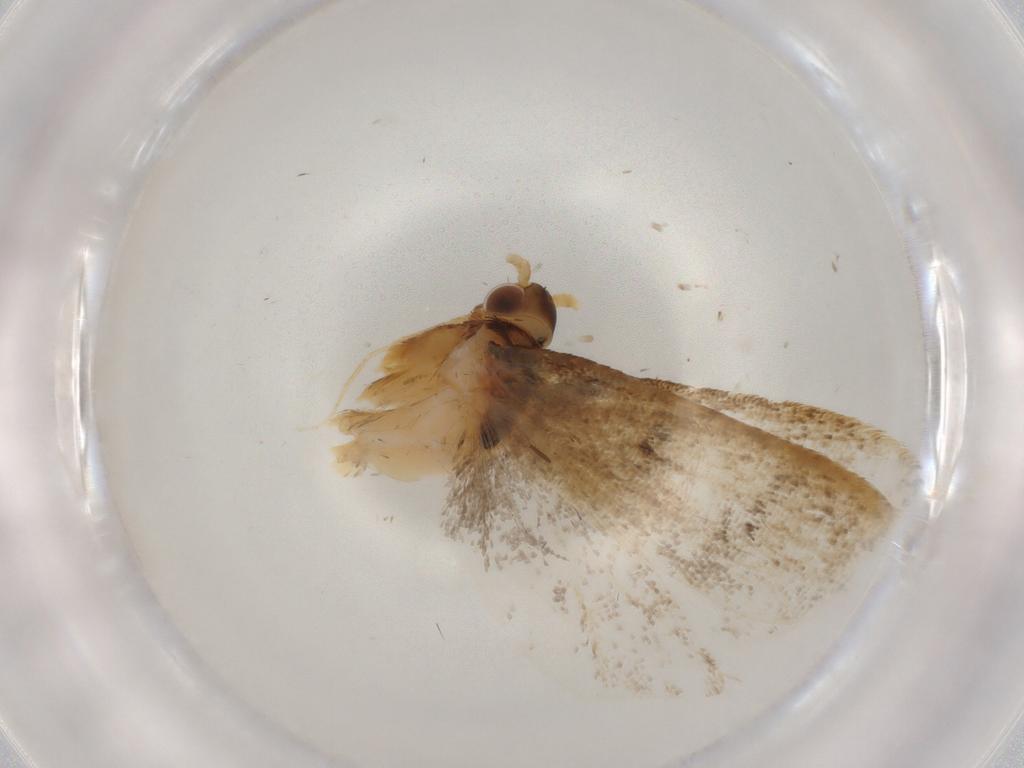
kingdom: Animalia
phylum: Arthropoda
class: Insecta
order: Lepidoptera
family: Lecithoceridae
